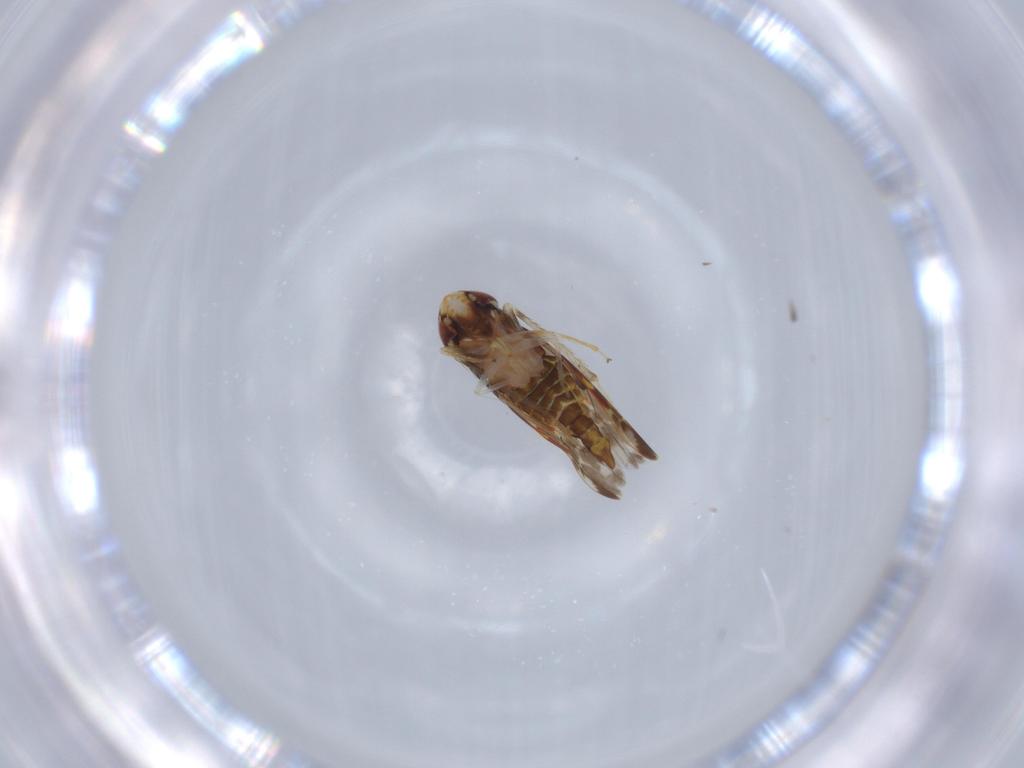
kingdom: Animalia
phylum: Arthropoda
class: Insecta
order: Hemiptera
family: Cicadellidae
